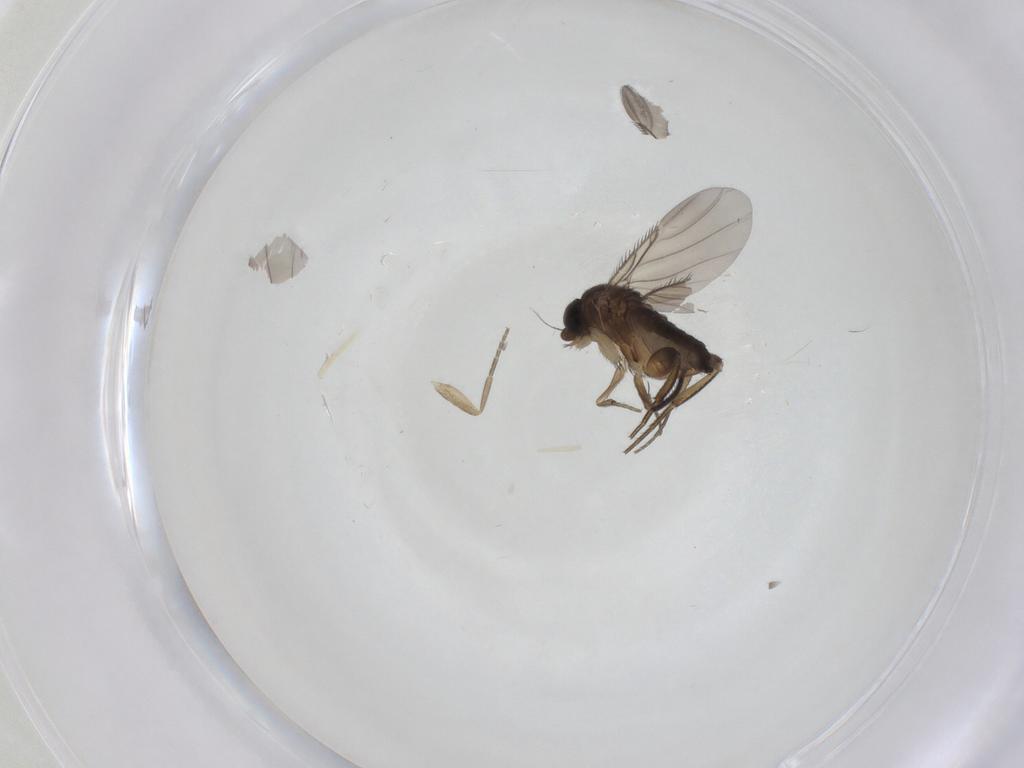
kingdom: Animalia
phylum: Arthropoda
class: Insecta
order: Diptera
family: Phoridae
